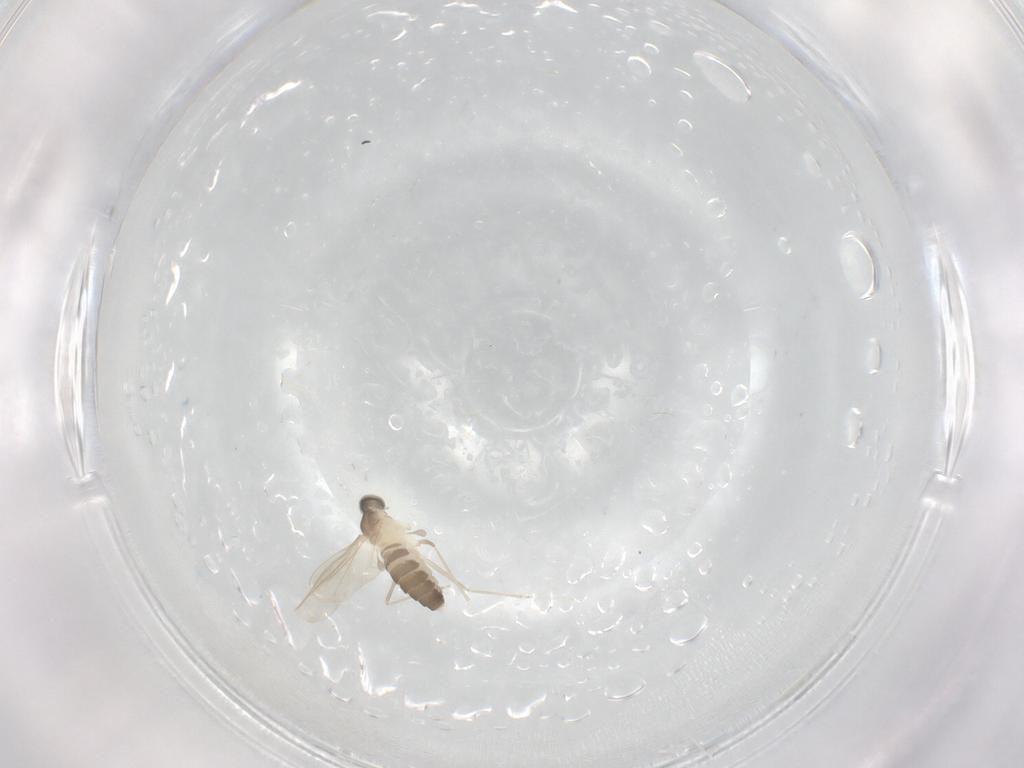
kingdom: Animalia
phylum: Arthropoda
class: Insecta
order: Diptera
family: Cecidomyiidae
